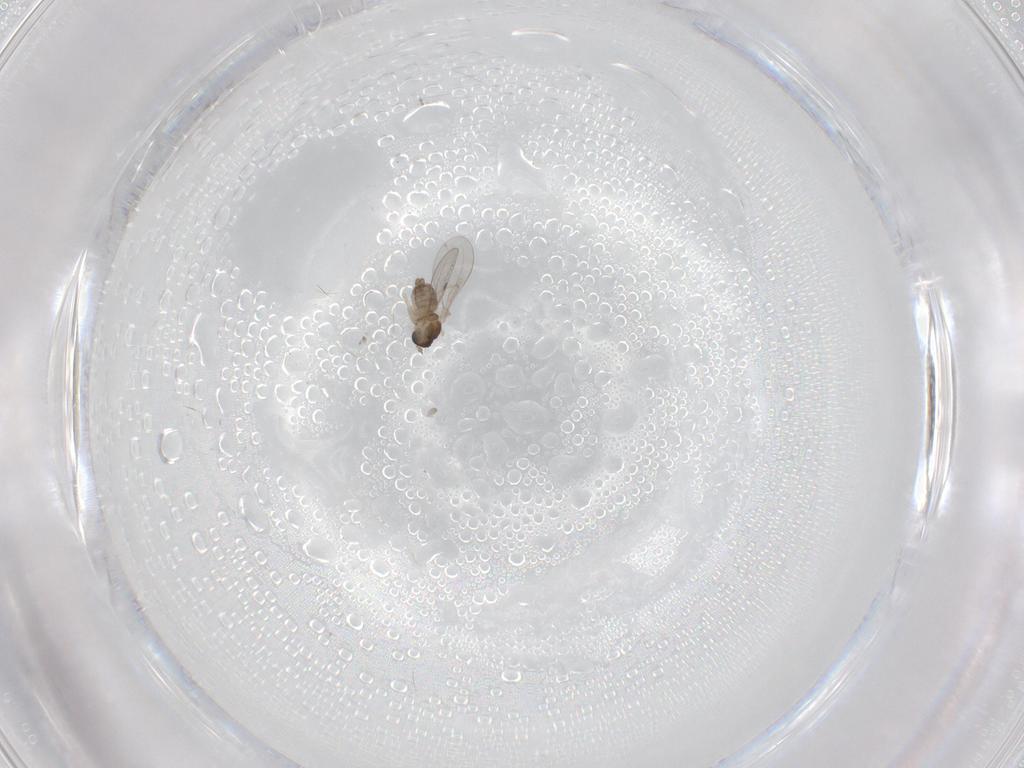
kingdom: Animalia
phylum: Arthropoda
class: Insecta
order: Diptera
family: Cecidomyiidae
